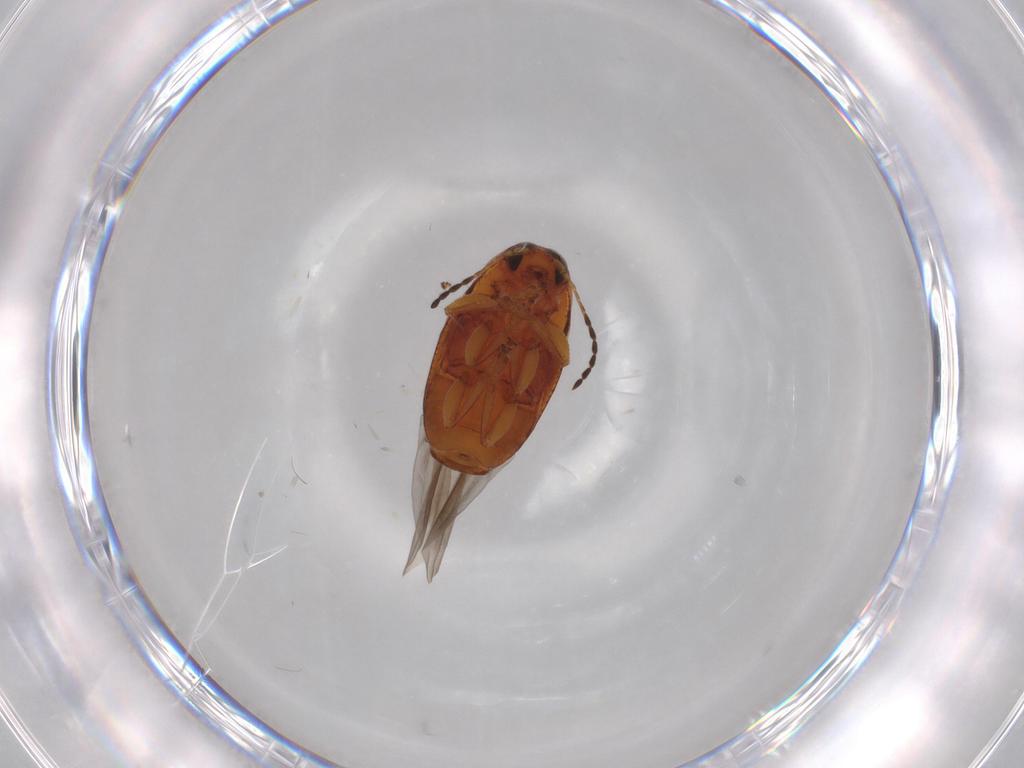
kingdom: Animalia
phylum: Arthropoda
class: Insecta
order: Coleoptera
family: Chrysomelidae
